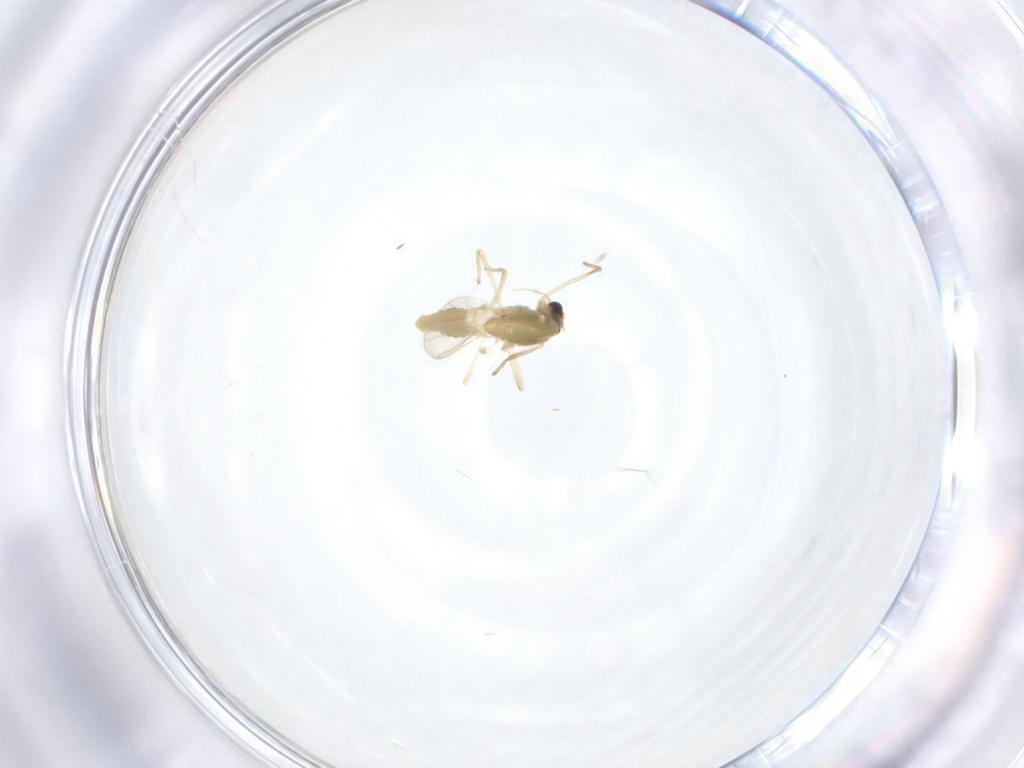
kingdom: Animalia
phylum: Arthropoda
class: Insecta
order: Diptera
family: Chironomidae
